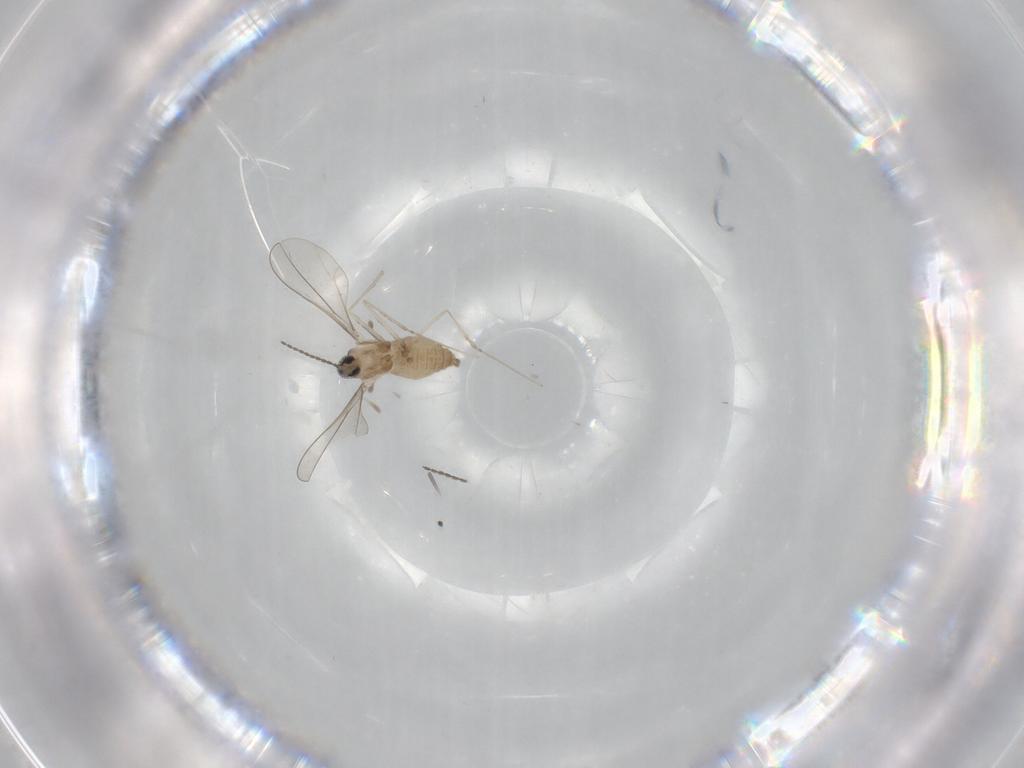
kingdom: Animalia
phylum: Arthropoda
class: Insecta
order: Diptera
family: Cecidomyiidae
